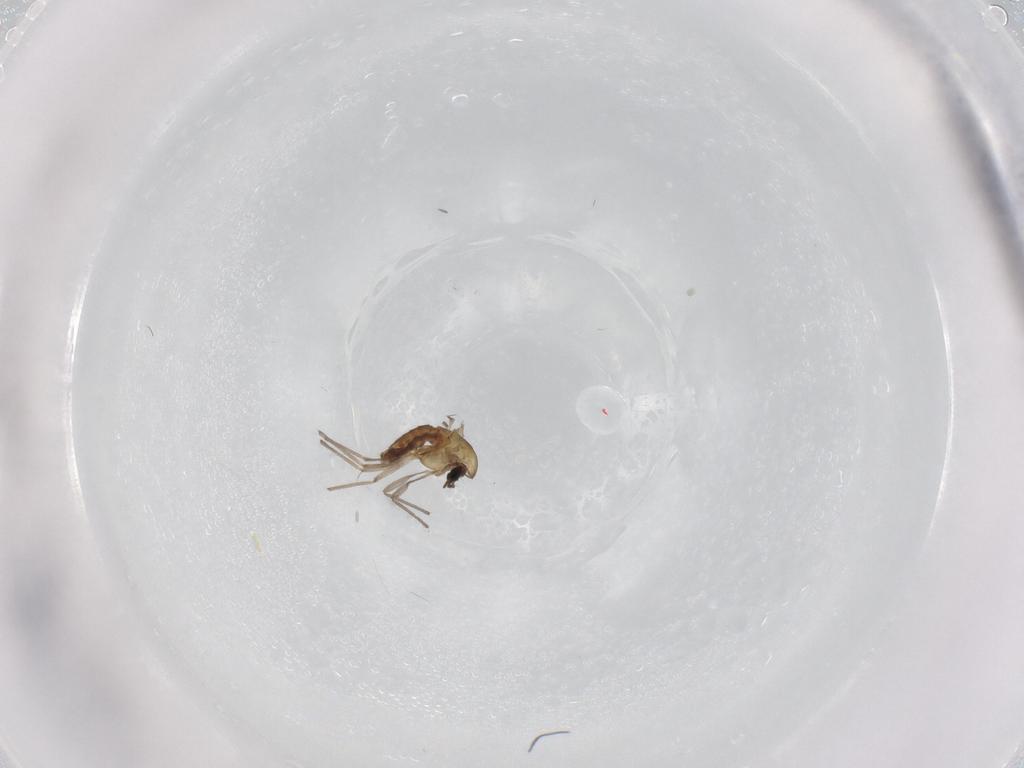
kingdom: Animalia
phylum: Arthropoda
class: Insecta
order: Diptera
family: Chironomidae
